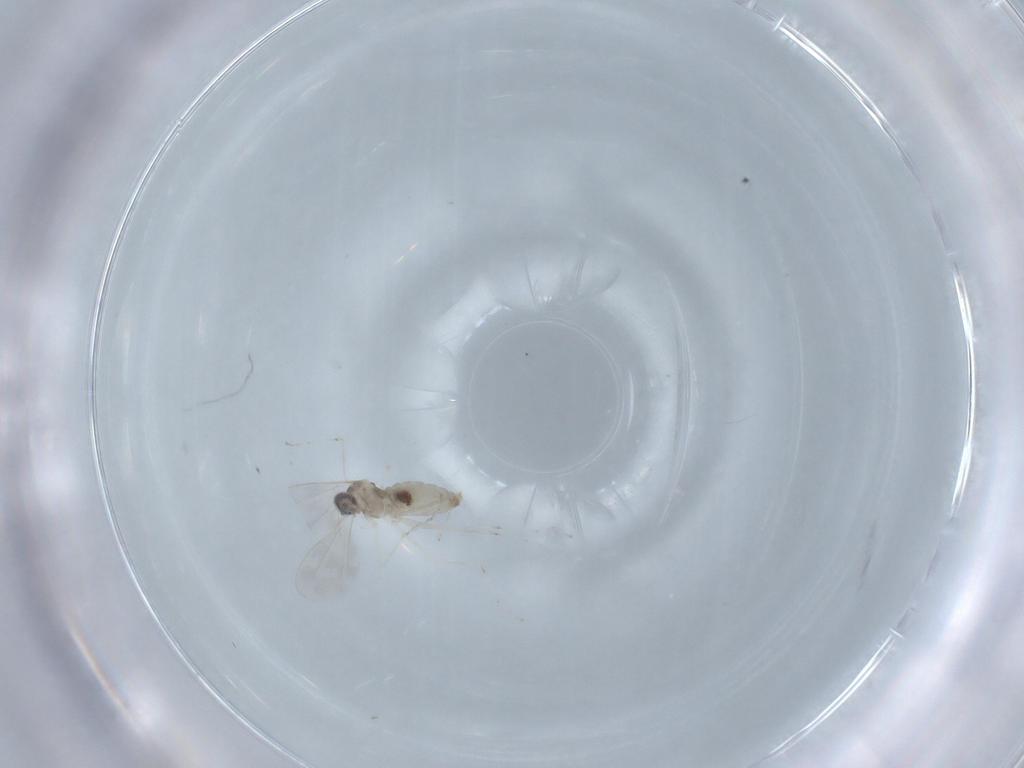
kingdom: Animalia
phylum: Arthropoda
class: Insecta
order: Diptera
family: Cecidomyiidae
